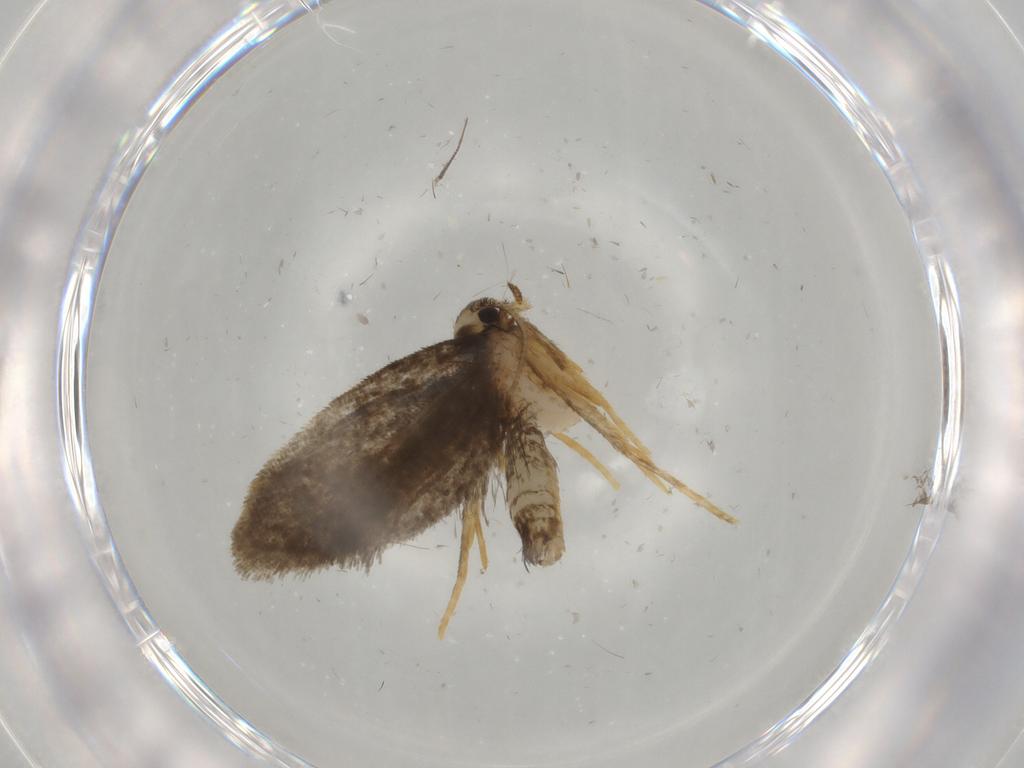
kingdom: Animalia
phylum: Arthropoda
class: Insecta
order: Lepidoptera
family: Psychidae
